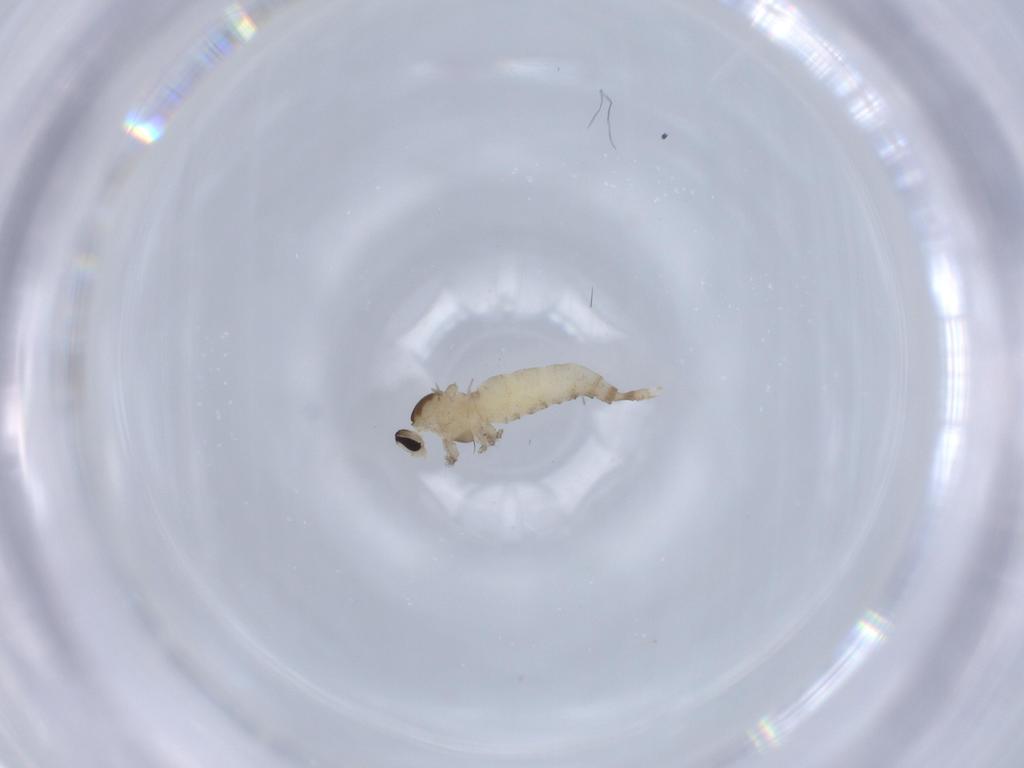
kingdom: Animalia
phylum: Arthropoda
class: Insecta
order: Diptera
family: Cecidomyiidae
